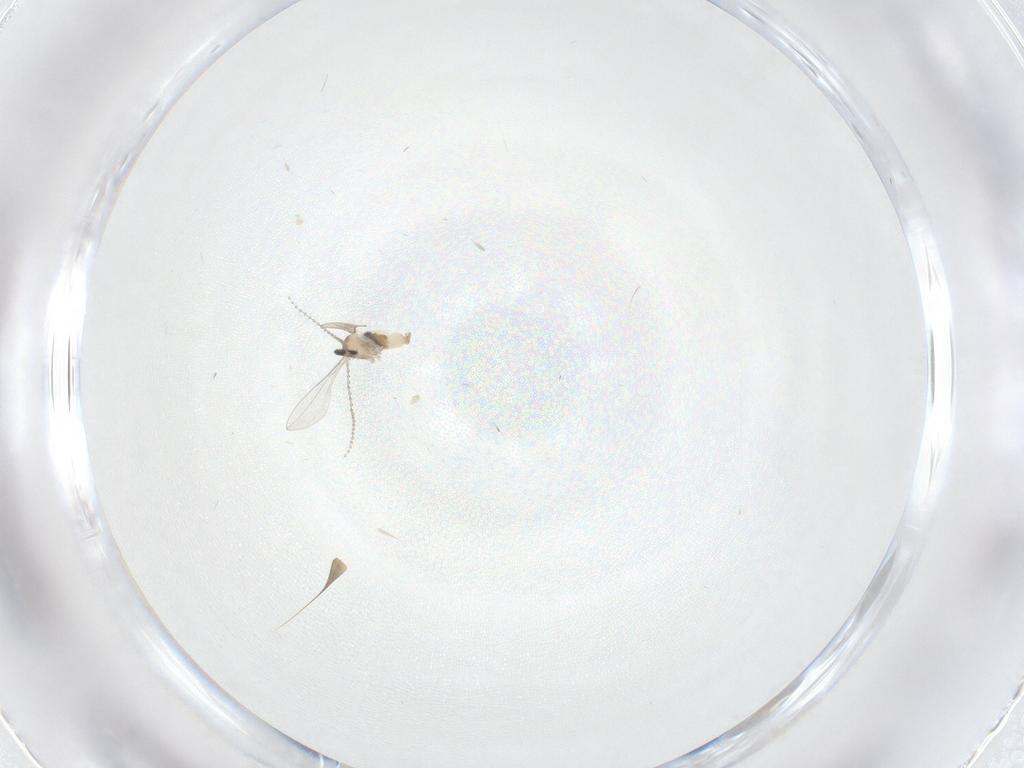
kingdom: Animalia
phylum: Arthropoda
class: Insecta
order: Diptera
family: Cecidomyiidae
